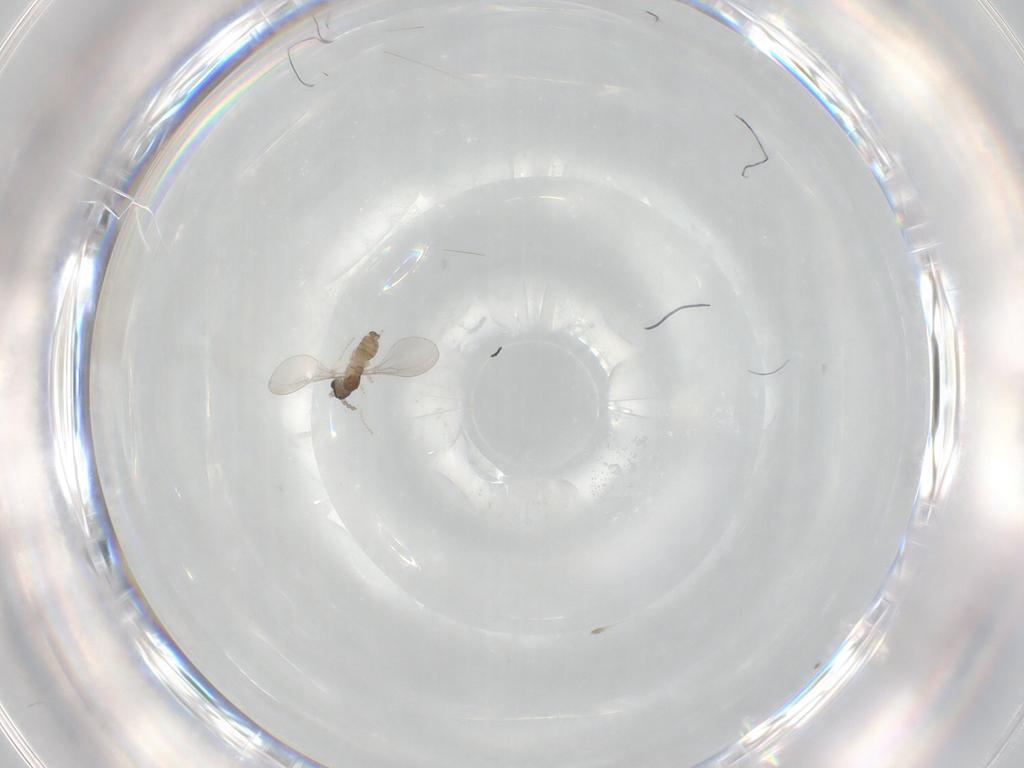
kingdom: Animalia
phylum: Arthropoda
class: Insecta
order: Diptera
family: Cecidomyiidae
